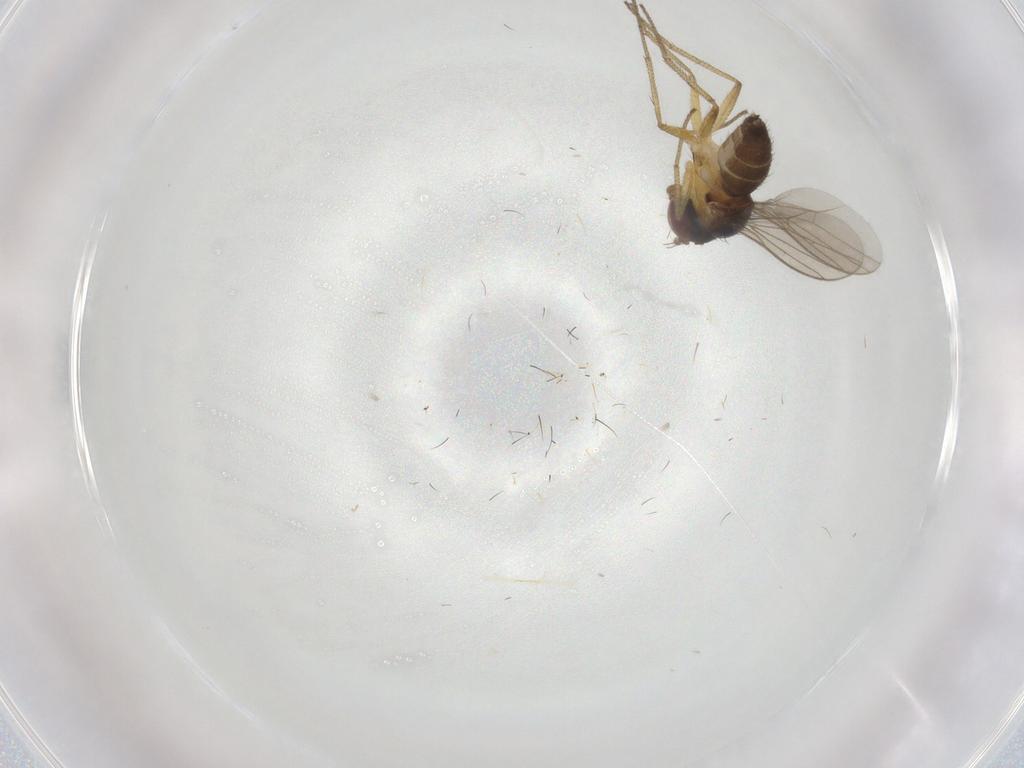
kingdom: Animalia
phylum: Arthropoda
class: Insecta
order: Diptera
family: Dolichopodidae
